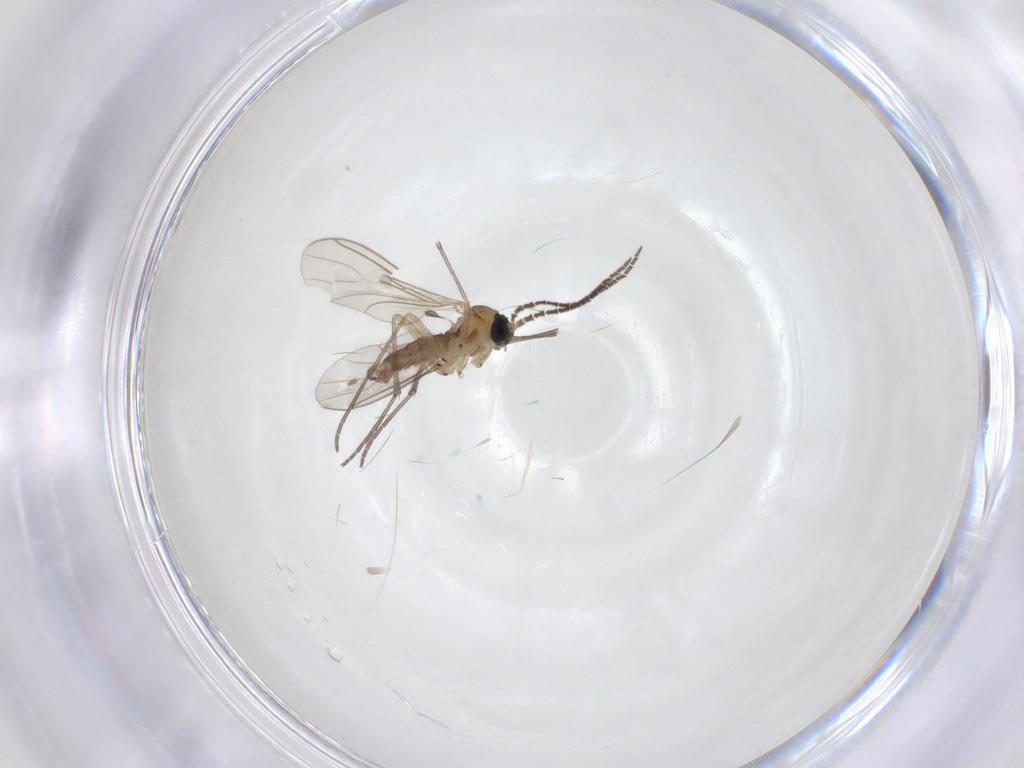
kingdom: Animalia
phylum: Arthropoda
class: Insecta
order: Diptera
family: Sciaridae
